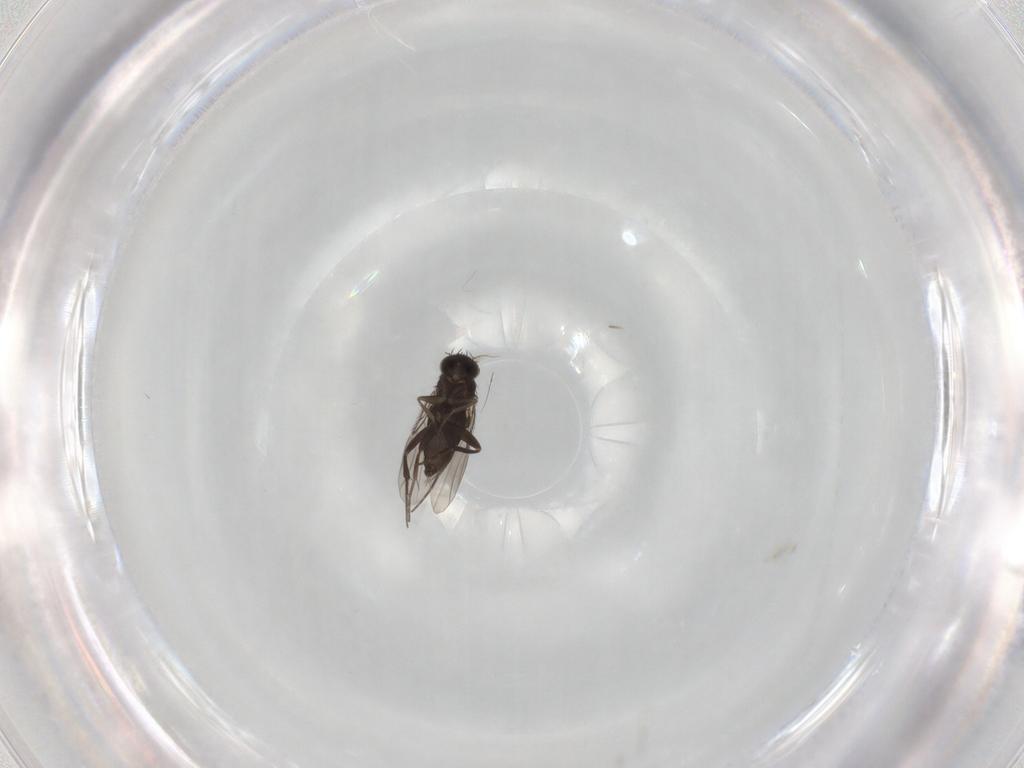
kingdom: Animalia
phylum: Arthropoda
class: Insecta
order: Diptera
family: Phoridae
